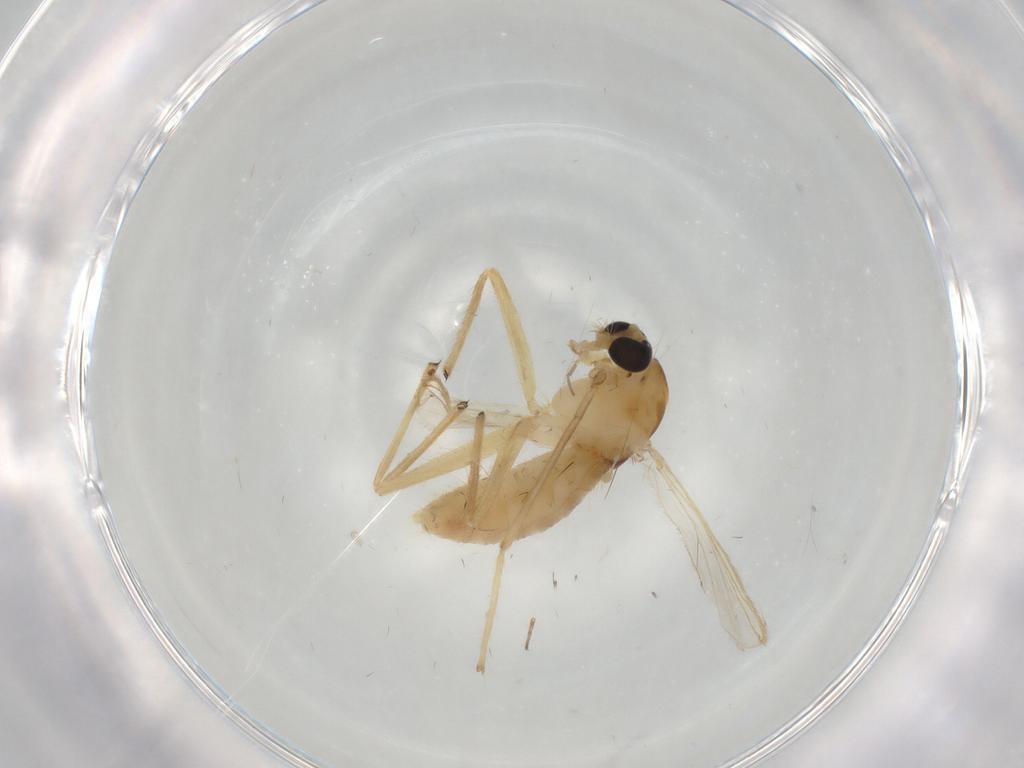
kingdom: Animalia
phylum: Arthropoda
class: Insecta
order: Diptera
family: Chironomidae
